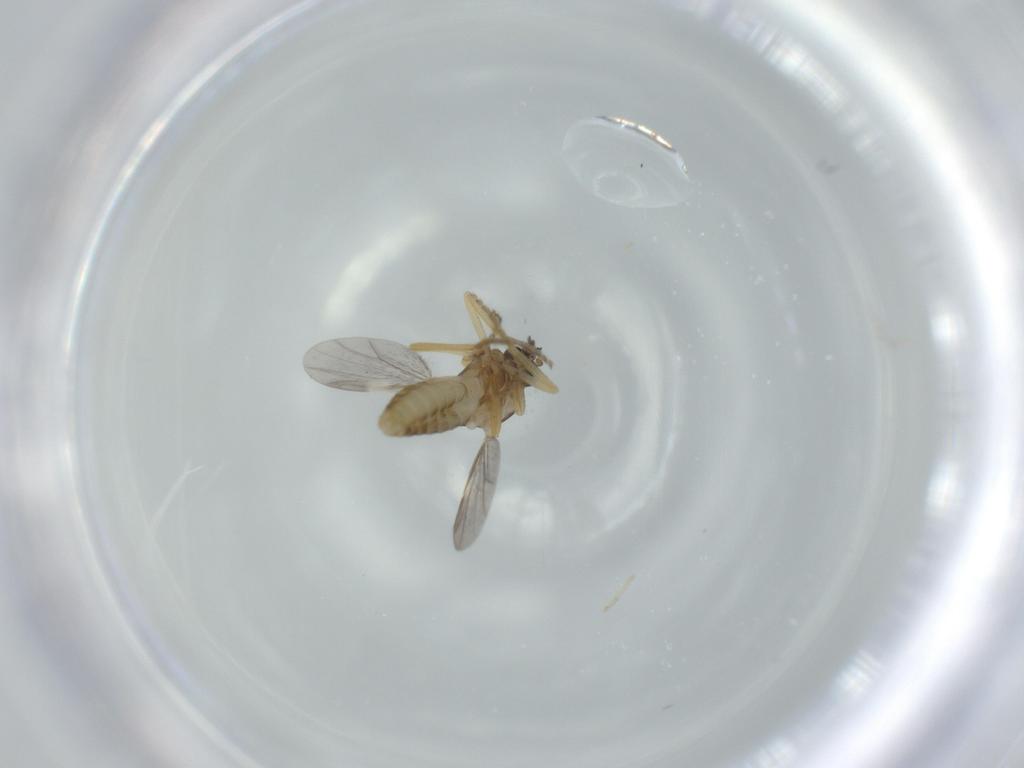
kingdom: Animalia
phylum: Arthropoda
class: Insecta
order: Diptera
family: Ceratopogonidae
